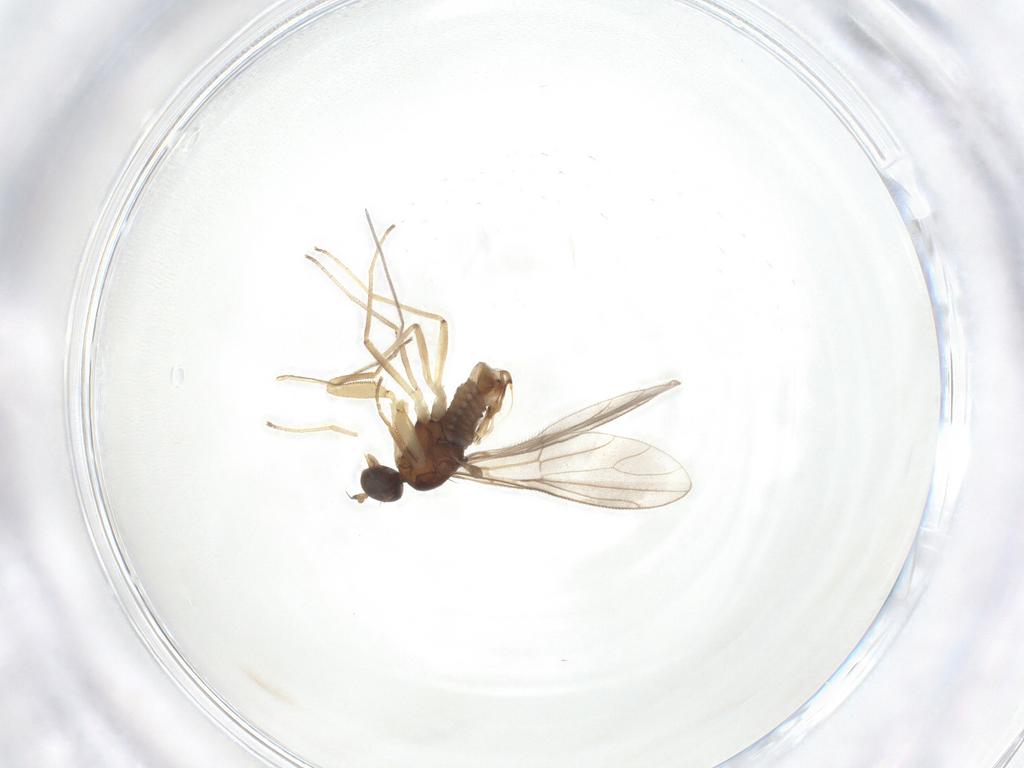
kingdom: Animalia
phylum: Arthropoda
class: Insecta
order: Diptera
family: Empididae
